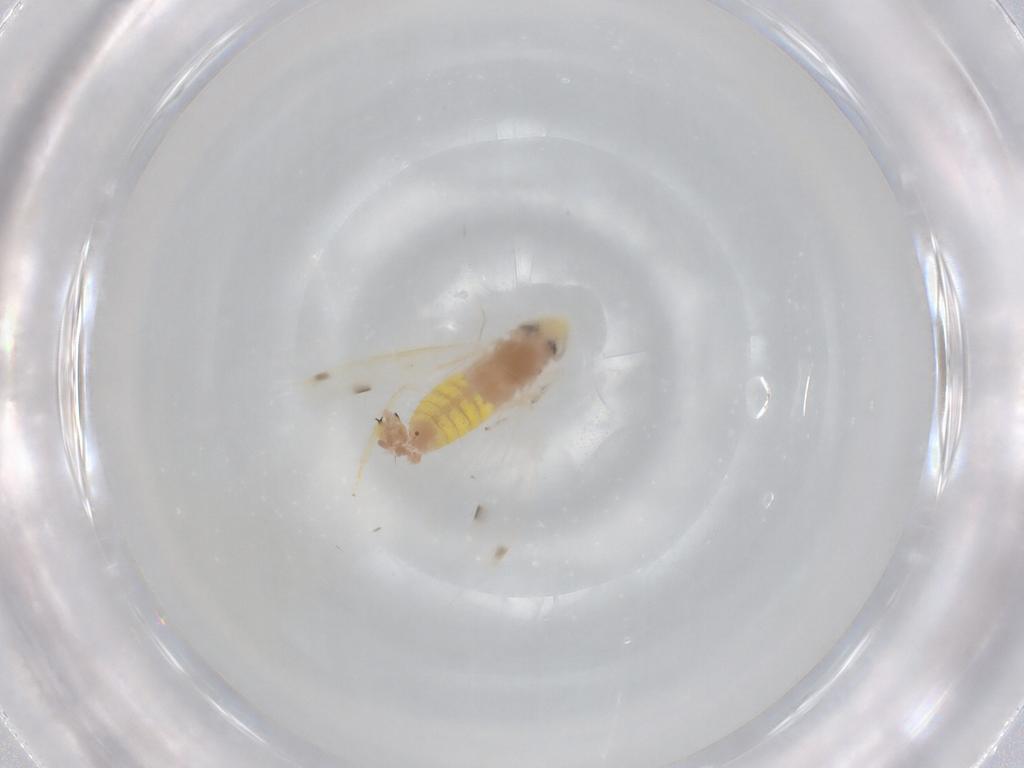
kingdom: Animalia
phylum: Arthropoda
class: Insecta
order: Hemiptera
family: Cicadellidae
